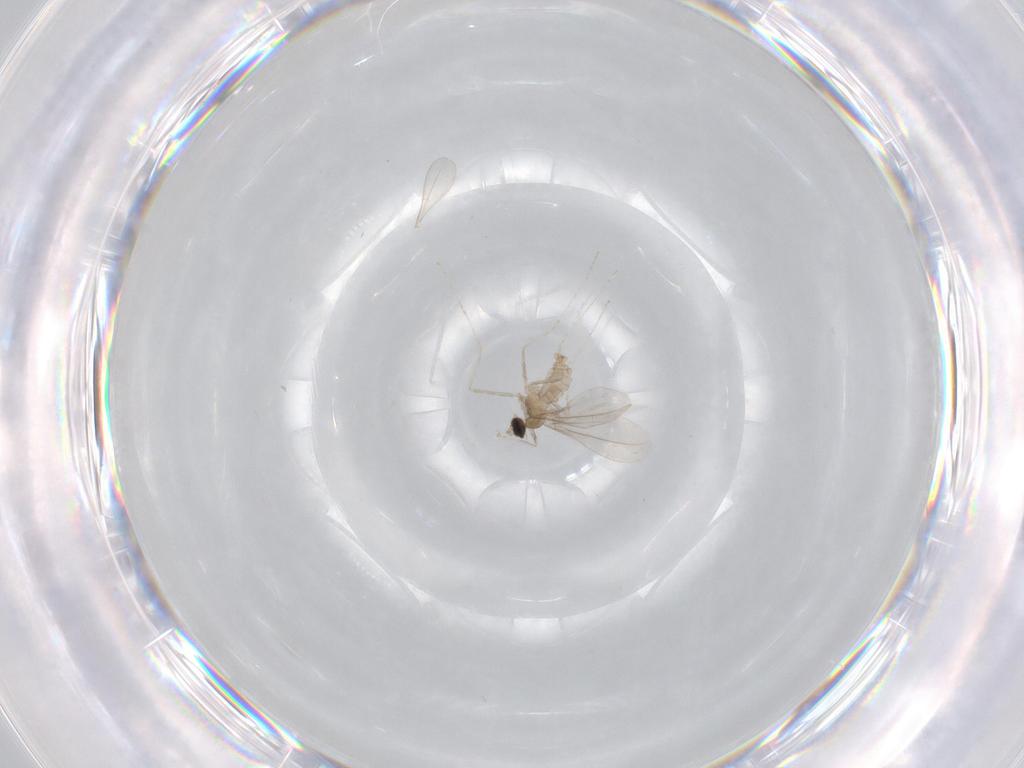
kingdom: Animalia
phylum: Arthropoda
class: Insecta
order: Diptera
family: Cecidomyiidae
